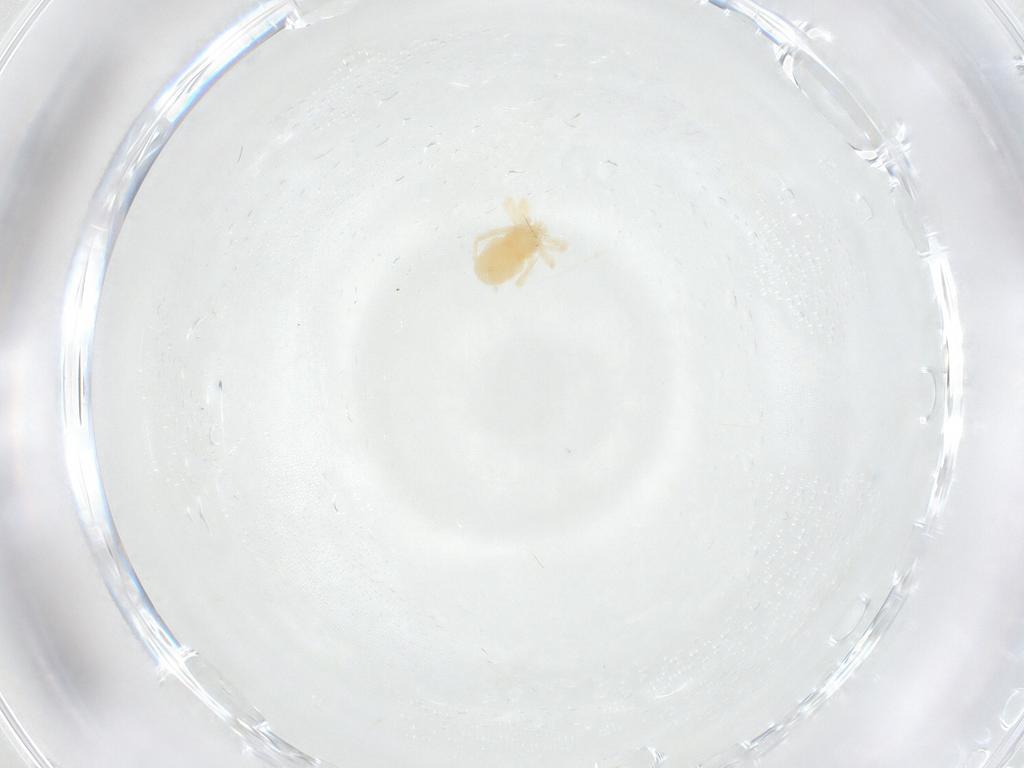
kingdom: Animalia
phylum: Arthropoda
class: Arachnida
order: Trombidiformes
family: Anystidae
